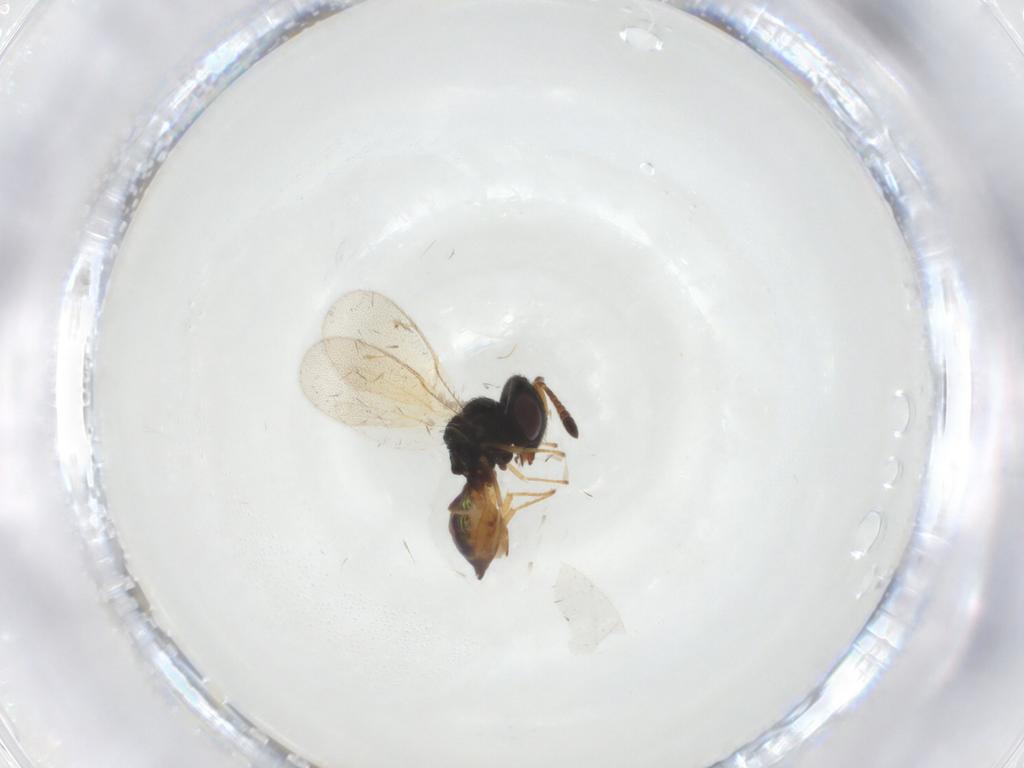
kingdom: Animalia
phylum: Arthropoda
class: Insecta
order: Hymenoptera
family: Pteromalidae
